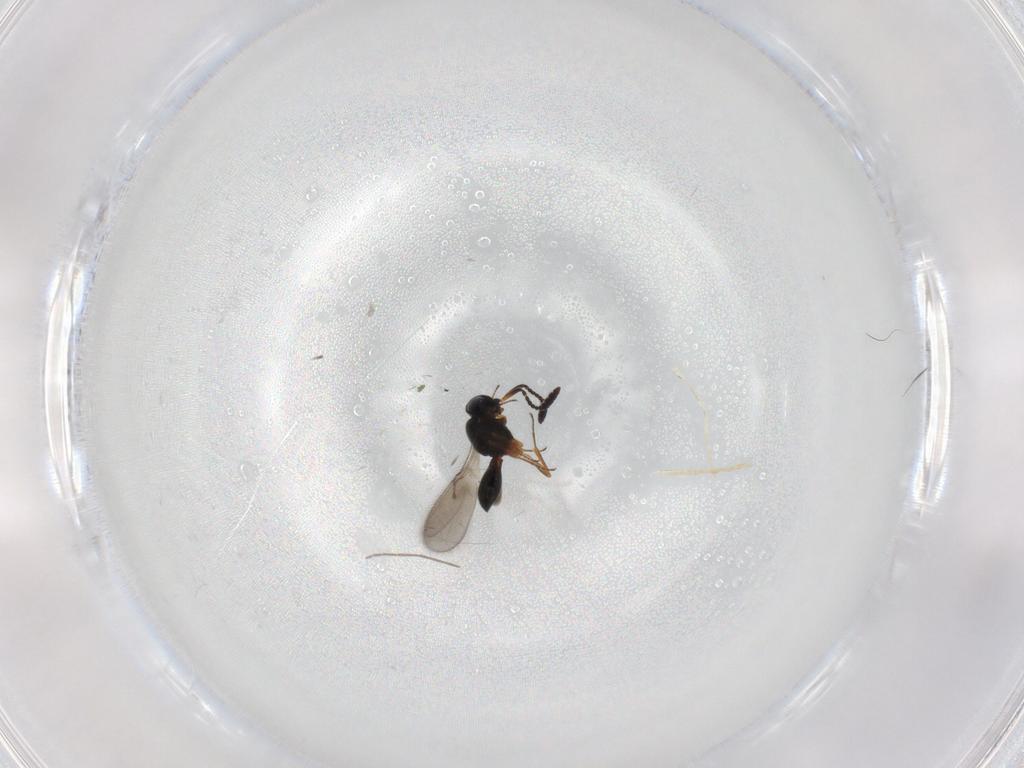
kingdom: Animalia
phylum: Arthropoda
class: Insecta
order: Hymenoptera
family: Scelionidae
